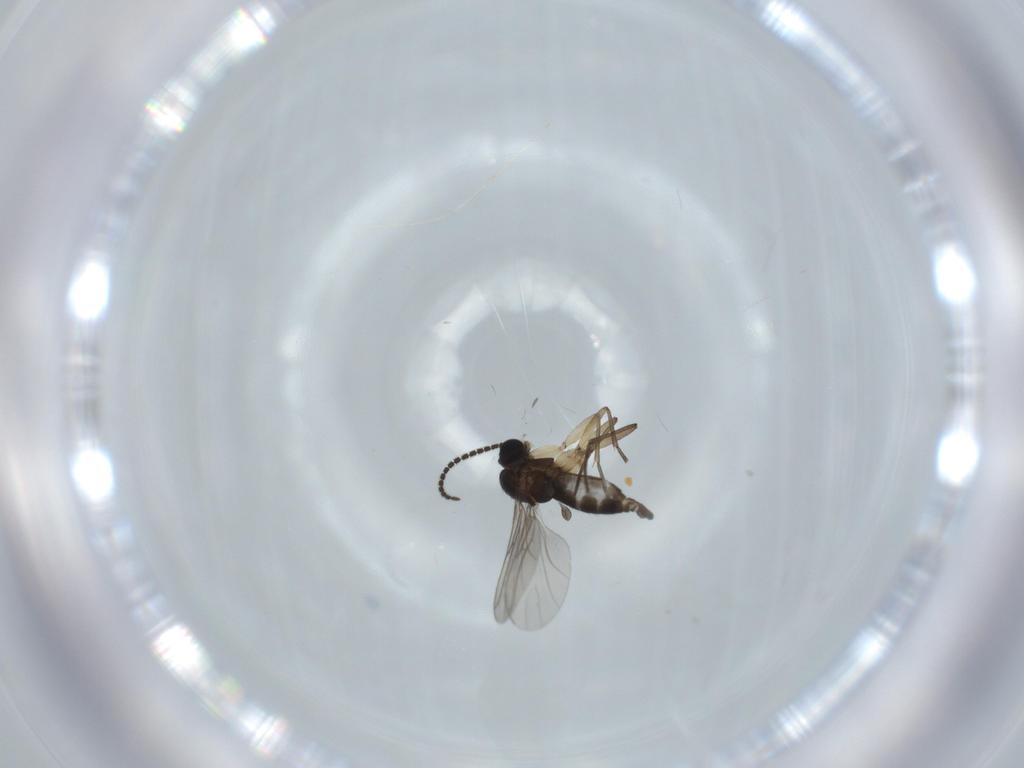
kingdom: Animalia
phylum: Arthropoda
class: Insecta
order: Diptera
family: Sciaridae
